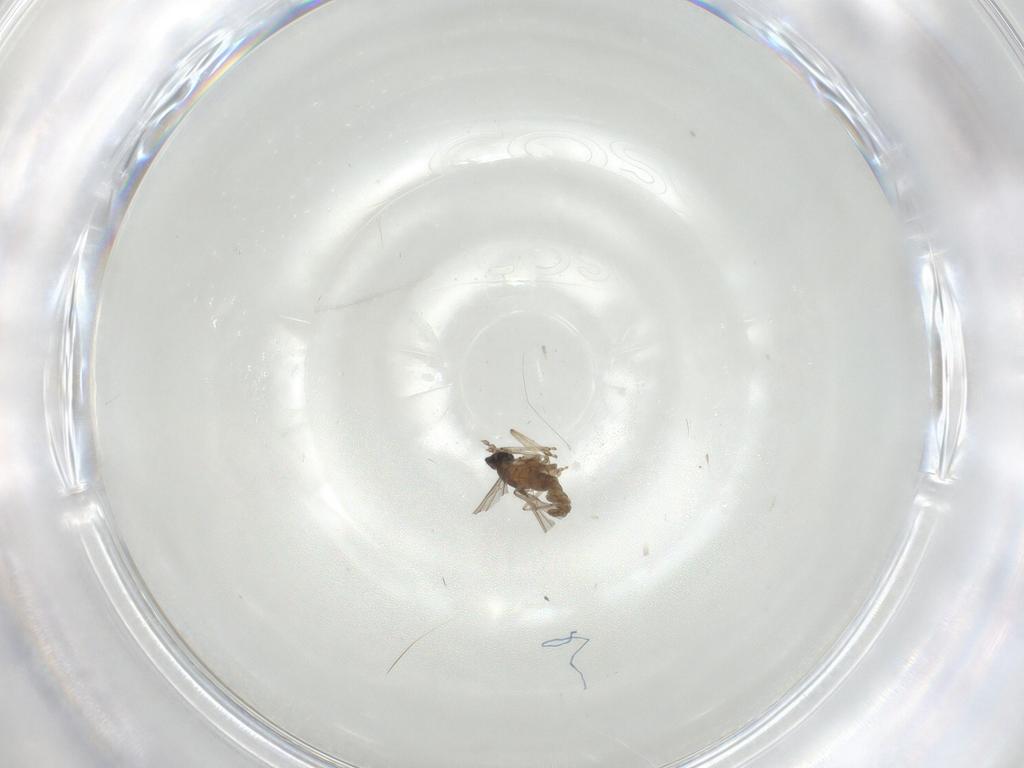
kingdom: Animalia
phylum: Arthropoda
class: Insecta
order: Diptera
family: Cecidomyiidae
